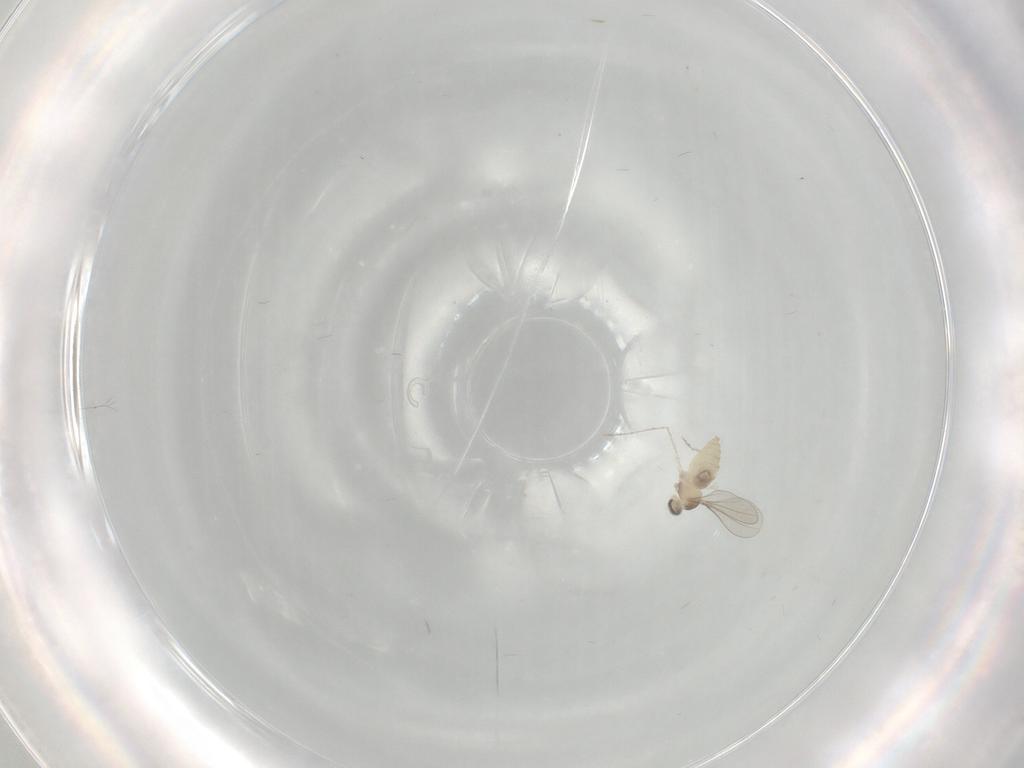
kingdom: Animalia
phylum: Arthropoda
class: Insecta
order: Diptera
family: Cecidomyiidae
